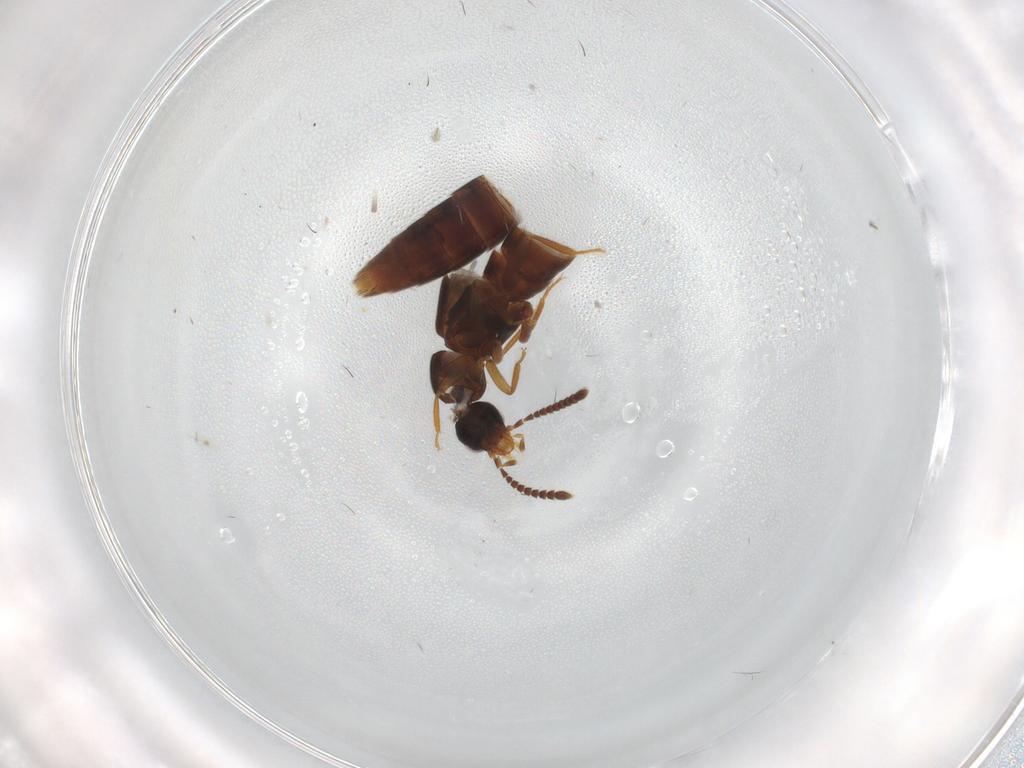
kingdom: Animalia
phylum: Arthropoda
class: Insecta
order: Coleoptera
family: Staphylinidae
